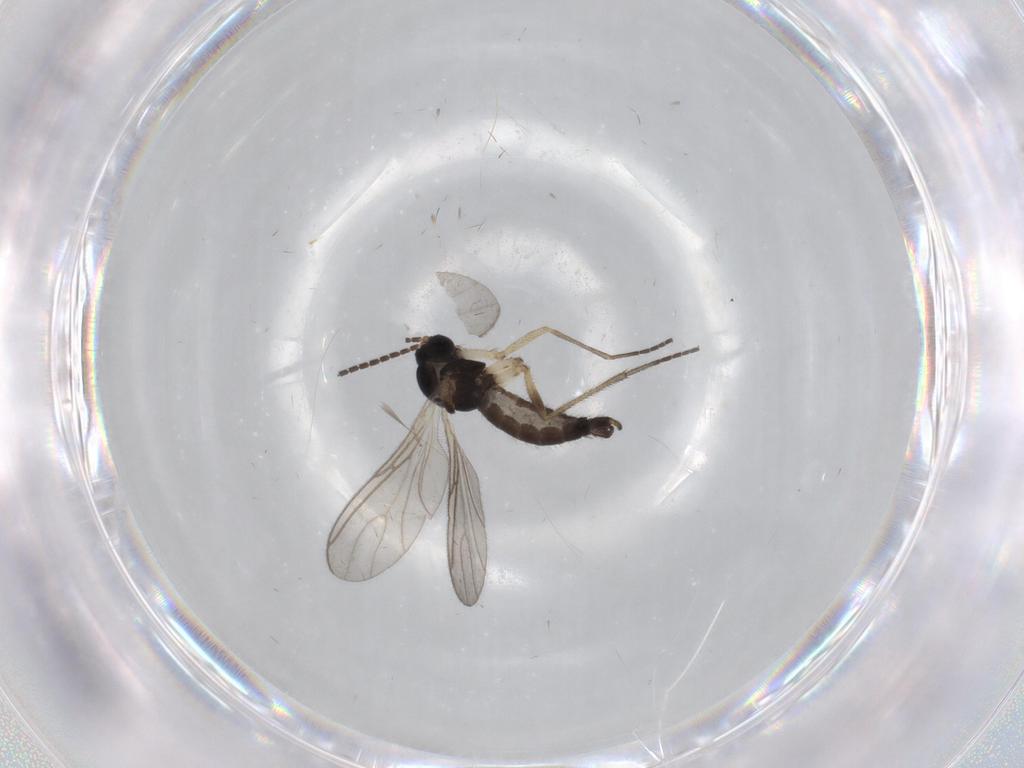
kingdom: Animalia
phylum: Arthropoda
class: Insecta
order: Diptera
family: Sciaridae
